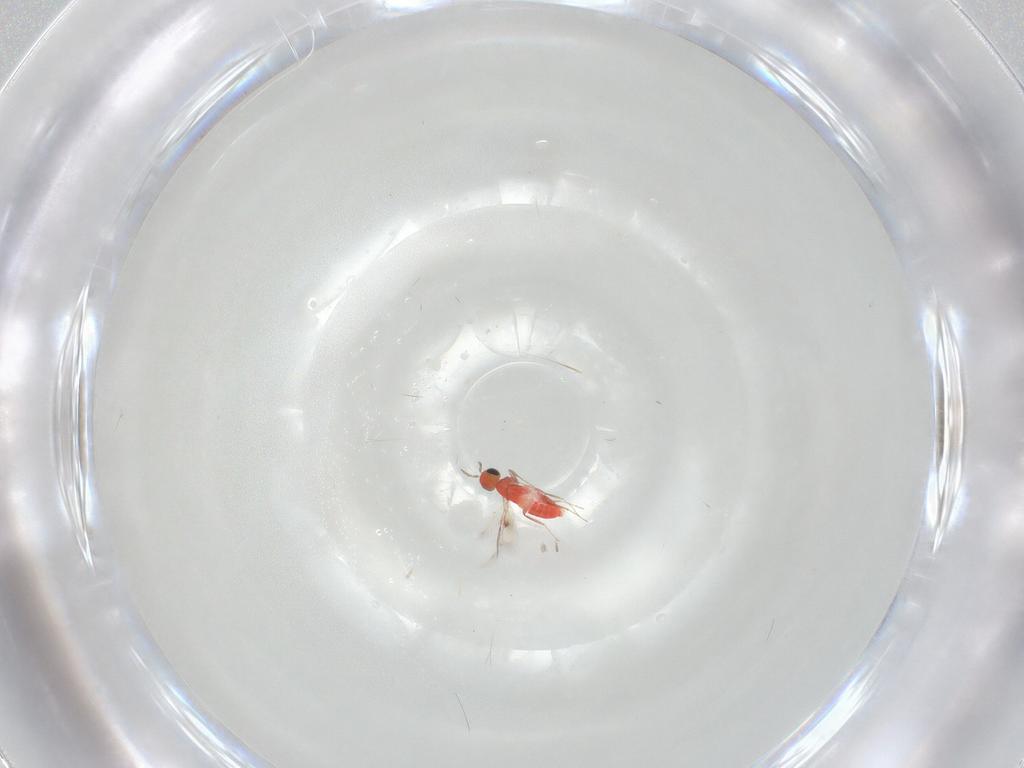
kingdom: Animalia
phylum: Arthropoda
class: Insecta
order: Hymenoptera
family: Trichogrammatidae
